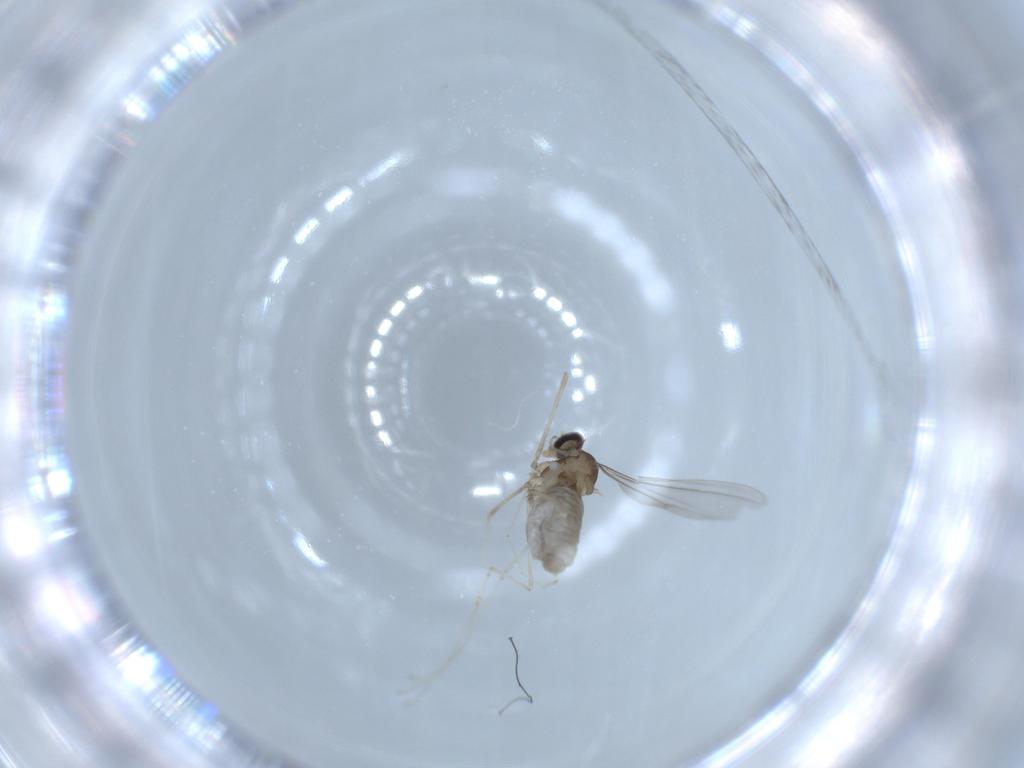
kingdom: Animalia
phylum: Arthropoda
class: Insecta
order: Diptera
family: Cecidomyiidae
